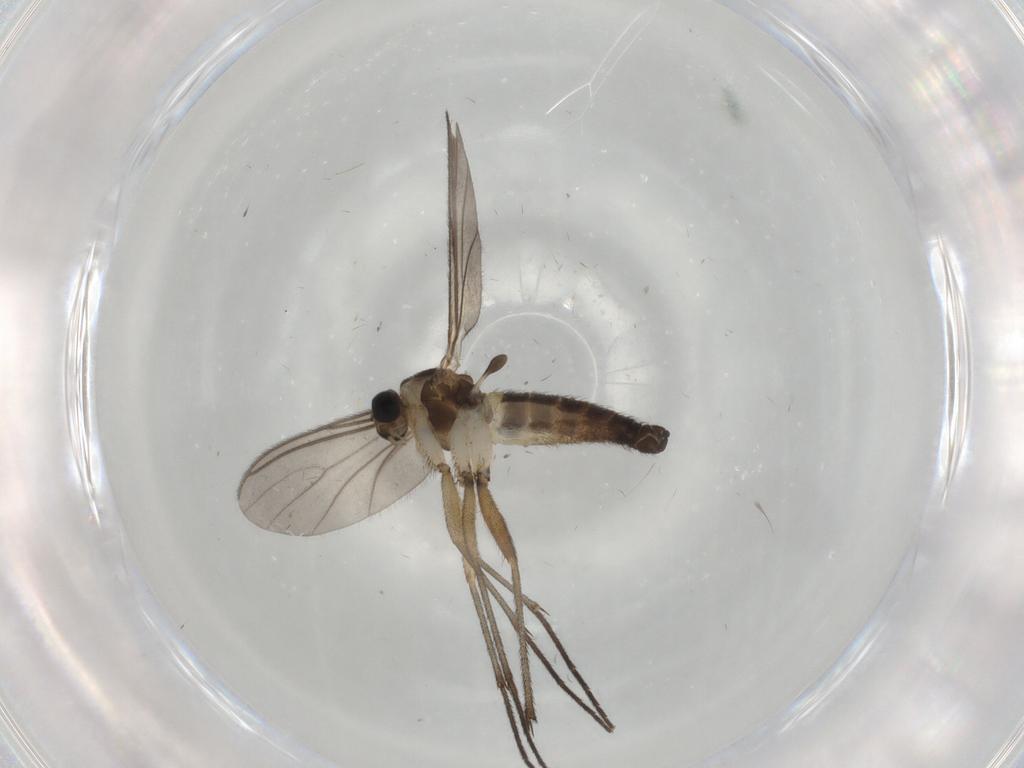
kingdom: Animalia
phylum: Arthropoda
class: Insecta
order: Diptera
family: Sciaridae
